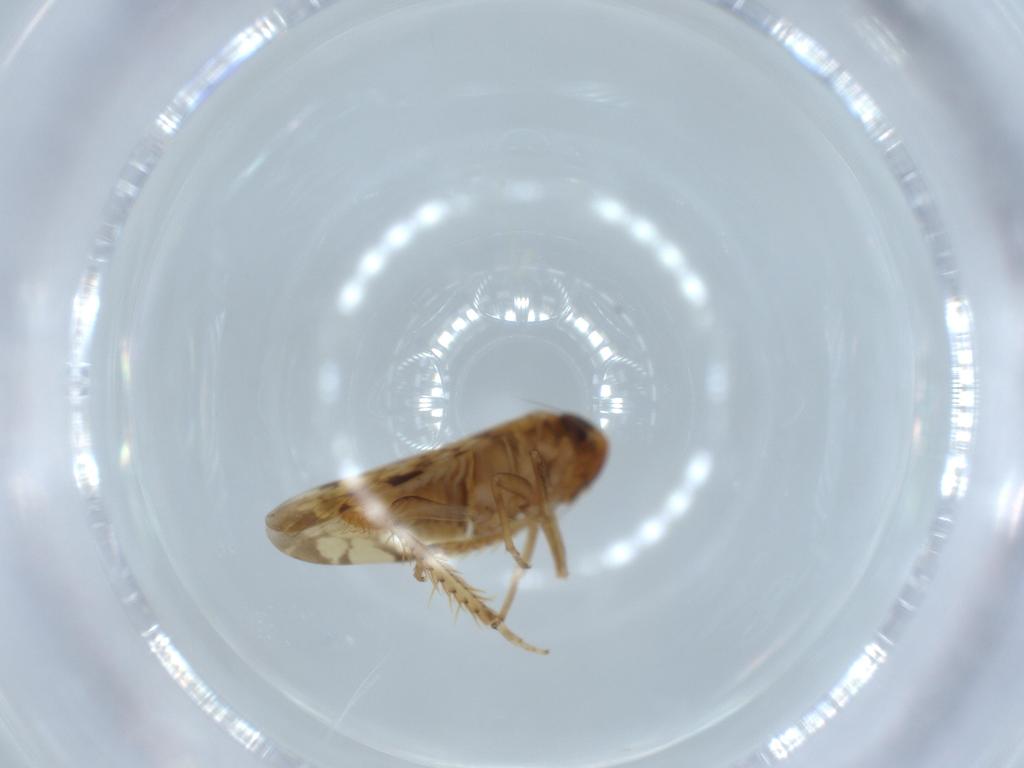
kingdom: Animalia
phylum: Arthropoda
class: Insecta
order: Hemiptera
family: Cicadellidae
